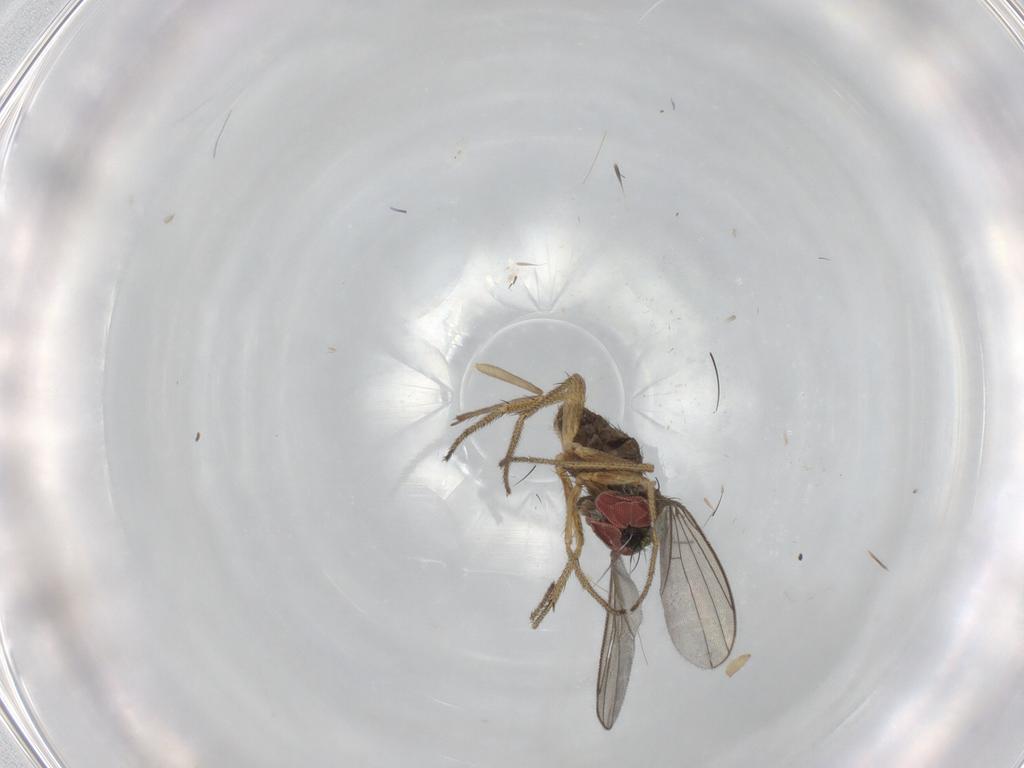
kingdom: Animalia
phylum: Arthropoda
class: Insecta
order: Diptera
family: Dolichopodidae
